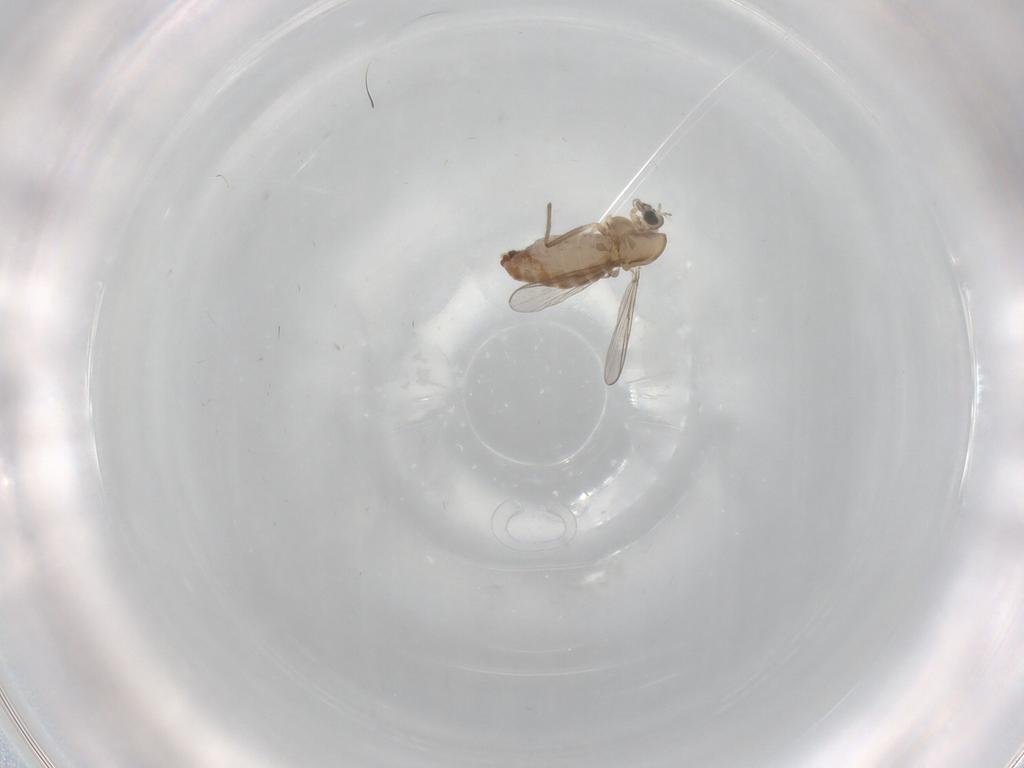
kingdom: Animalia
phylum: Arthropoda
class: Insecta
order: Diptera
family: Chironomidae
